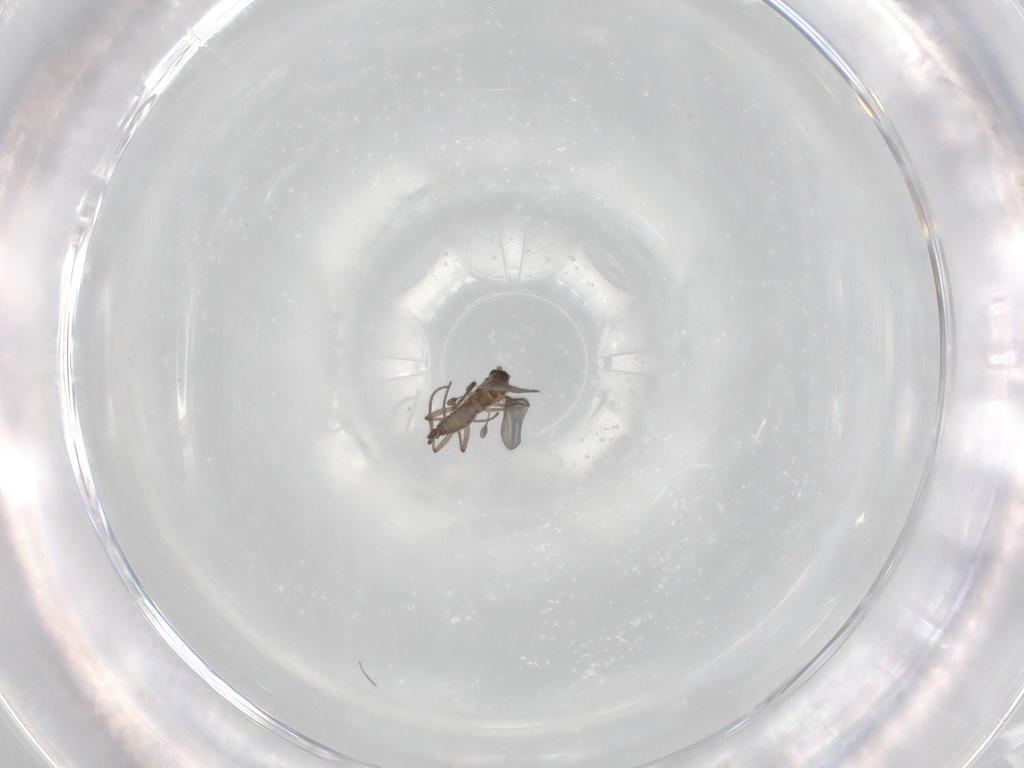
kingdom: Animalia
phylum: Arthropoda
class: Insecta
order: Diptera
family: Sciaridae
